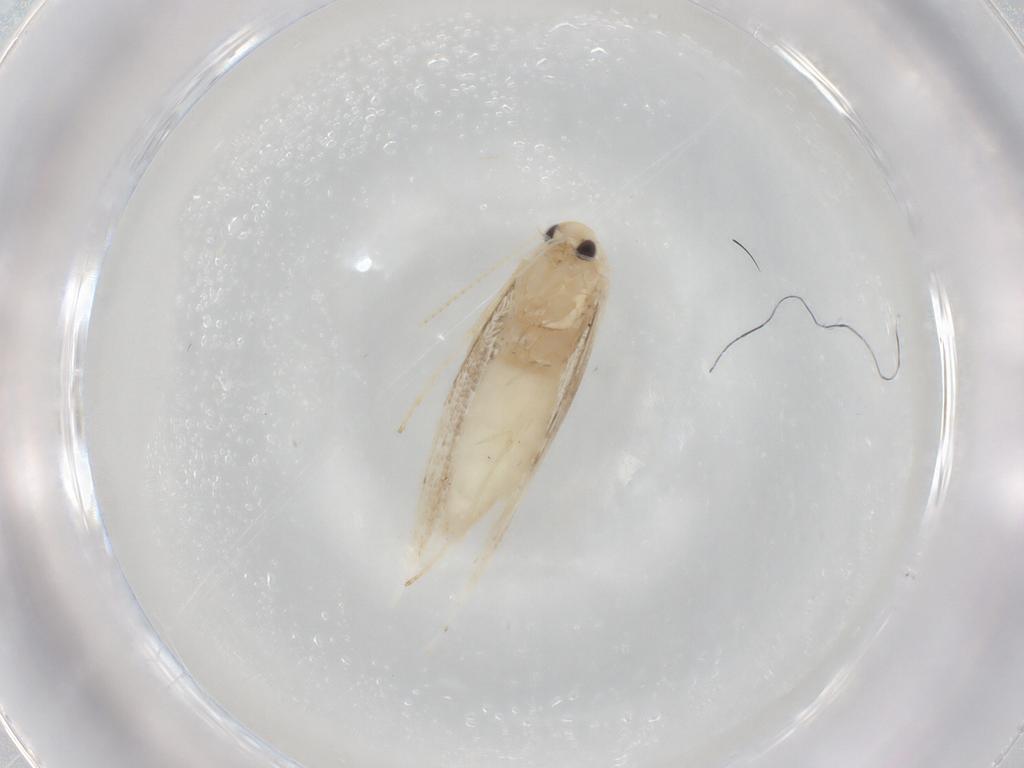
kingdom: Animalia
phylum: Arthropoda
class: Insecta
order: Lepidoptera
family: Gracillariidae
